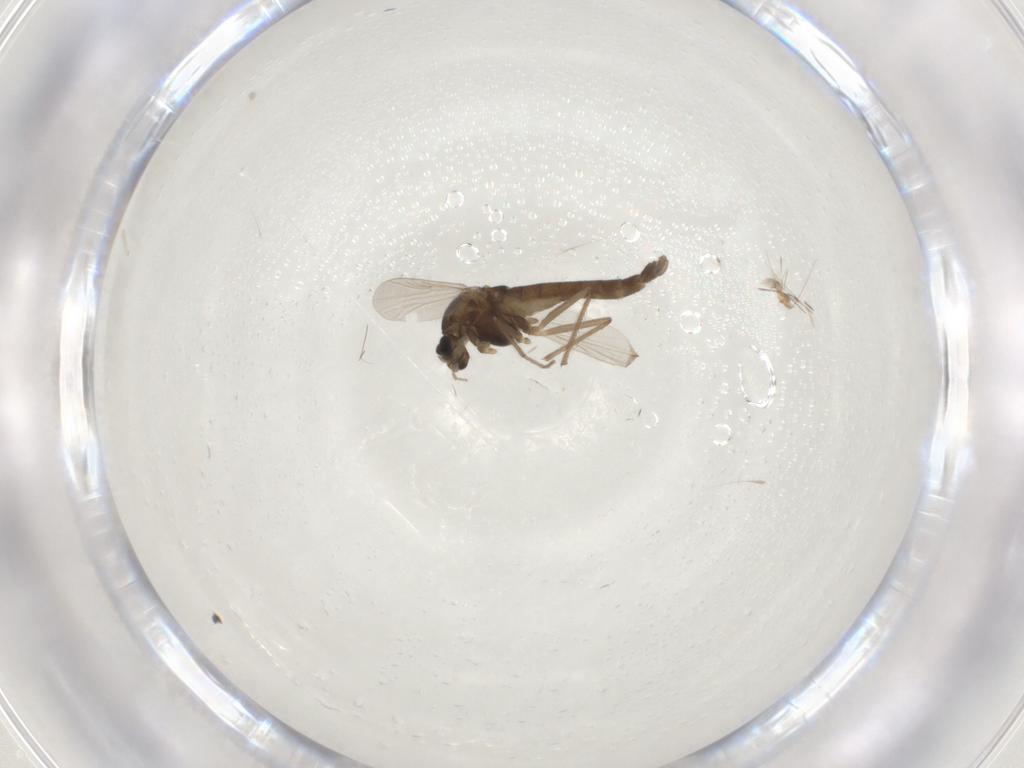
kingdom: Animalia
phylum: Arthropoda
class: Insecta
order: Diptera
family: Chironomidae
